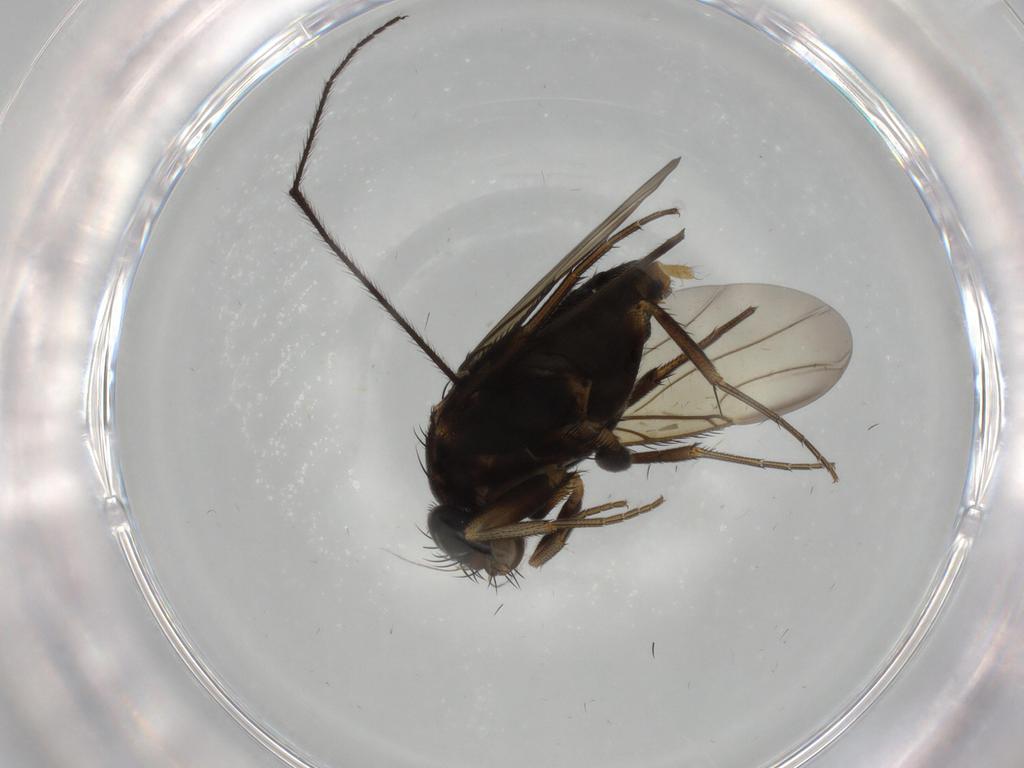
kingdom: Animalia
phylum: Arthropoda
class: Insecta
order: Diptera
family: Phoridae
